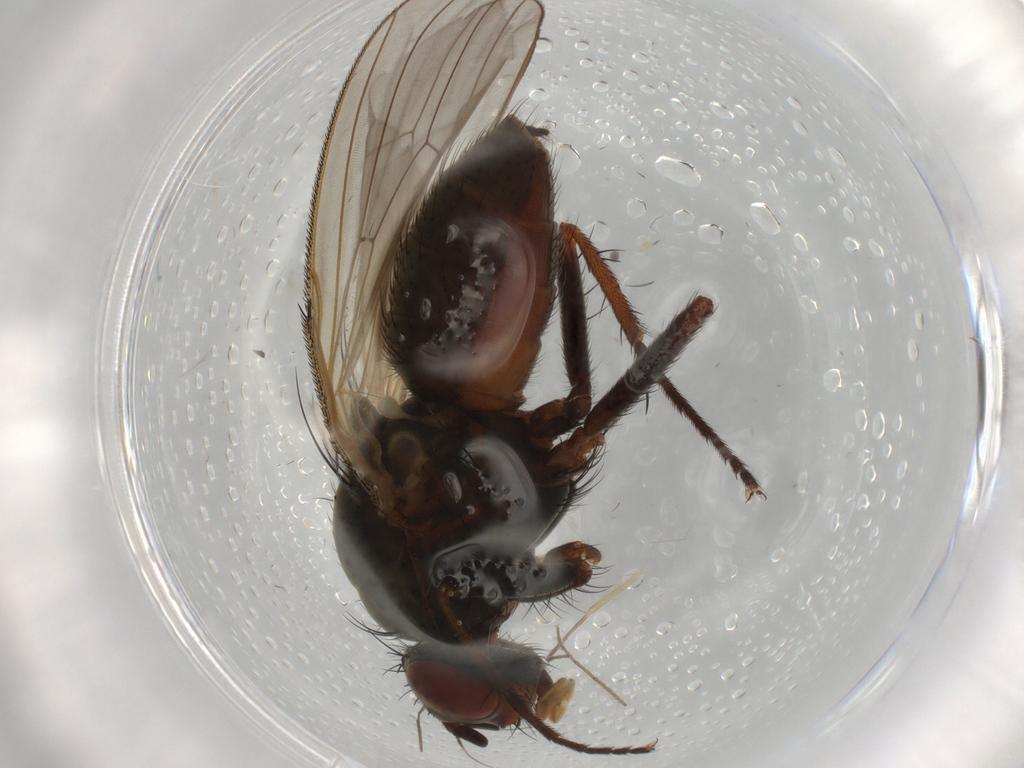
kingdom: Animalia
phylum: Arthropoda
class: Insecta
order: Diptera
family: Anthomyiidae
